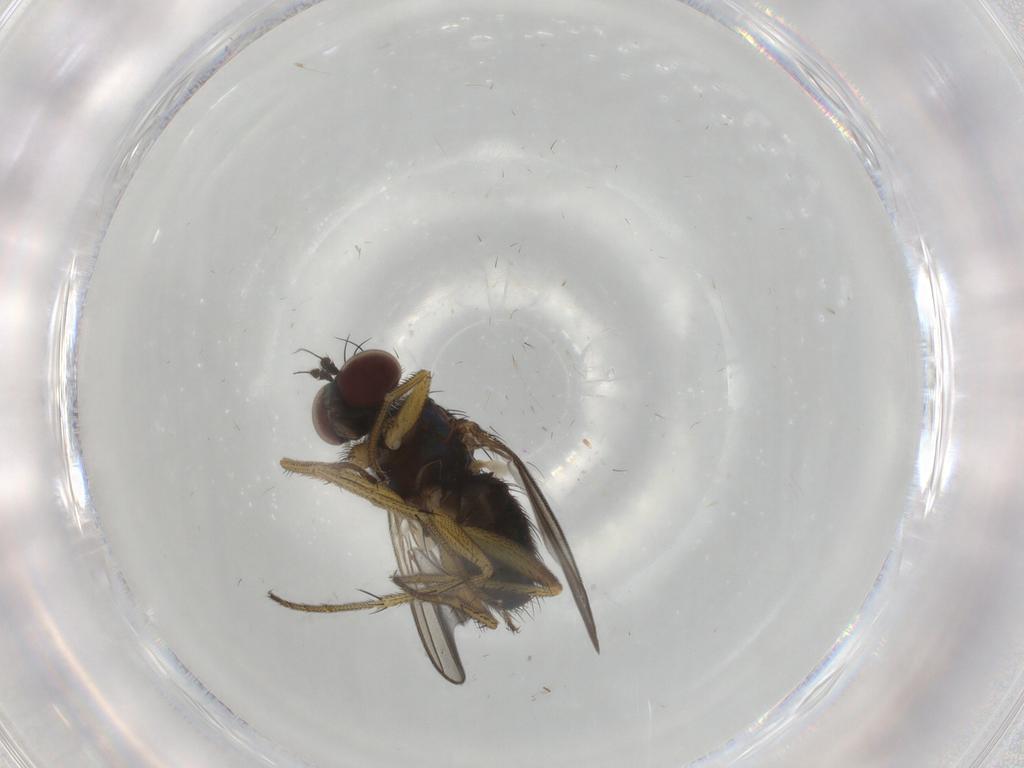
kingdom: Animalia
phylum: Arthropoda
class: Insecta
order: Diptera
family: Dolichopodidae
